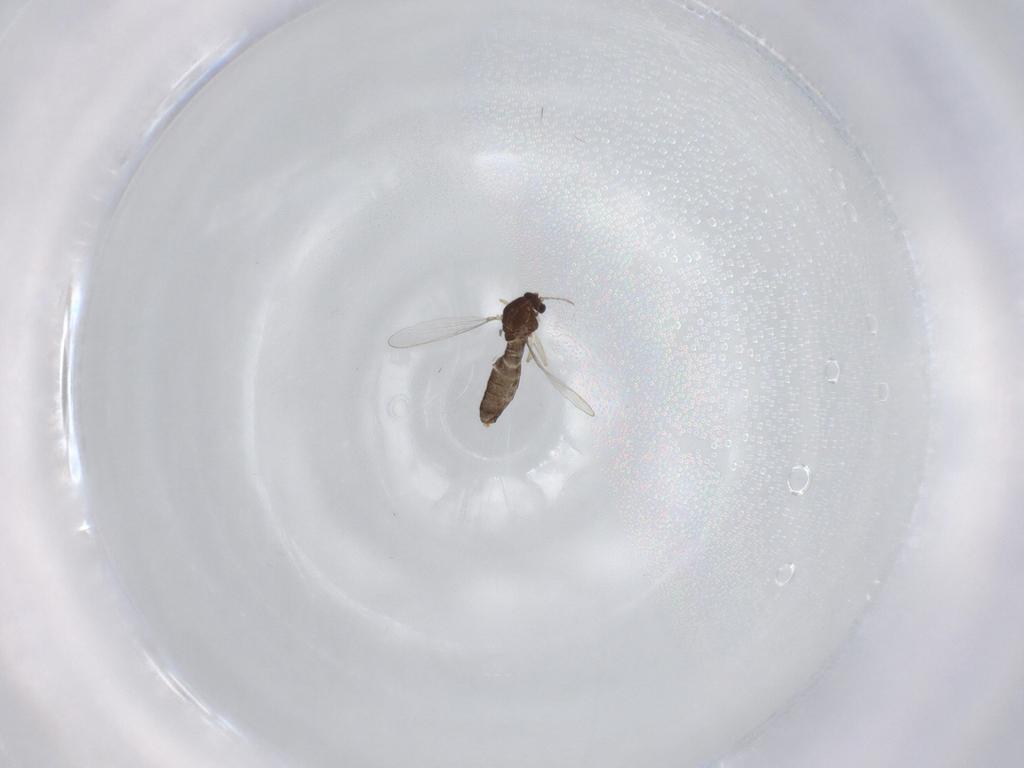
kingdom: Animalia
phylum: Arthropoda
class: Insecta
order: Diptera
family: Chironomidae
